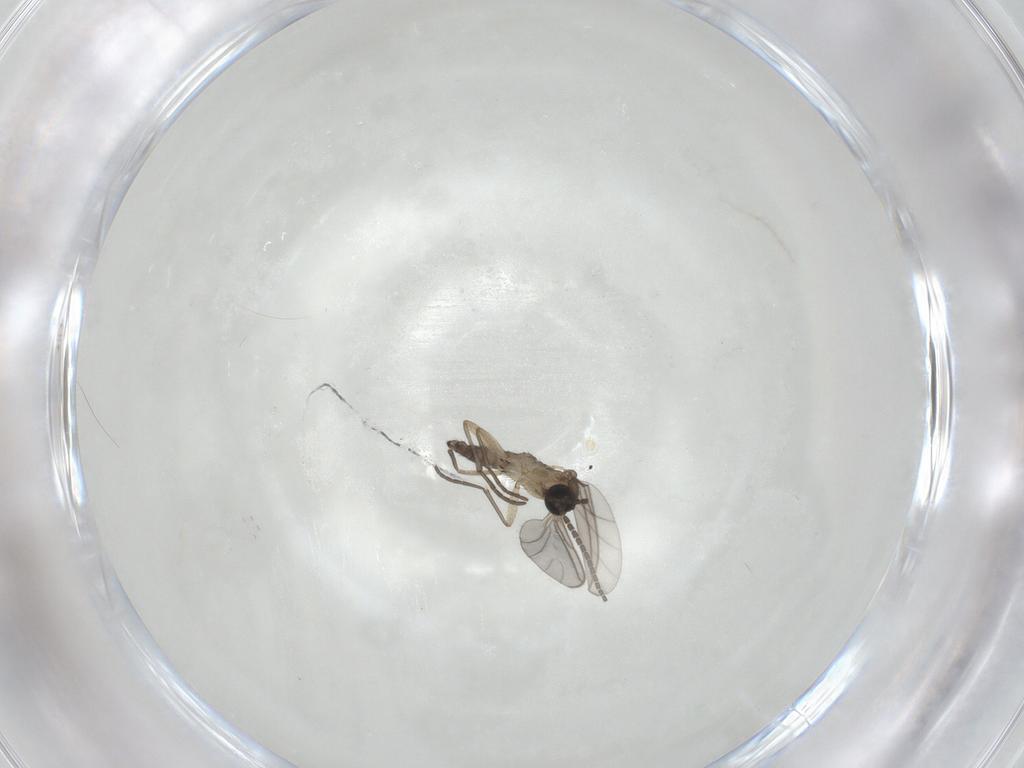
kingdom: Animalia
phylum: Arthropoda
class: Insecta
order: Diptera
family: Sciaridae
